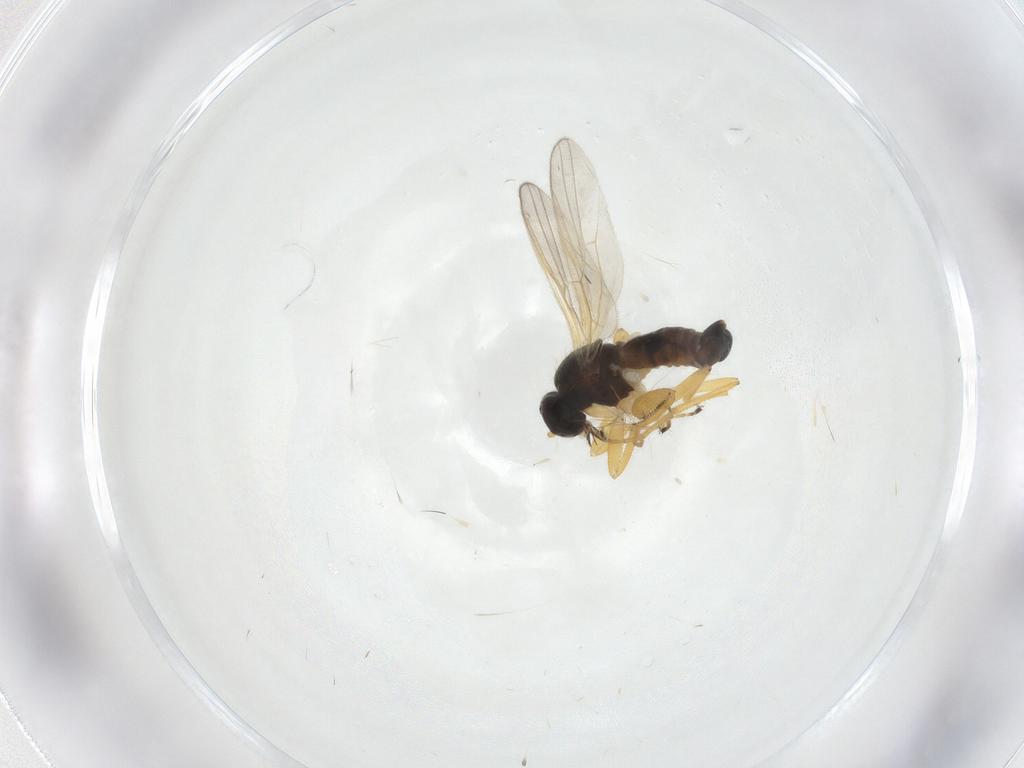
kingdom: Animalia
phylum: Arthropoda
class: Insecta
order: Diptera
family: Hybotidae
